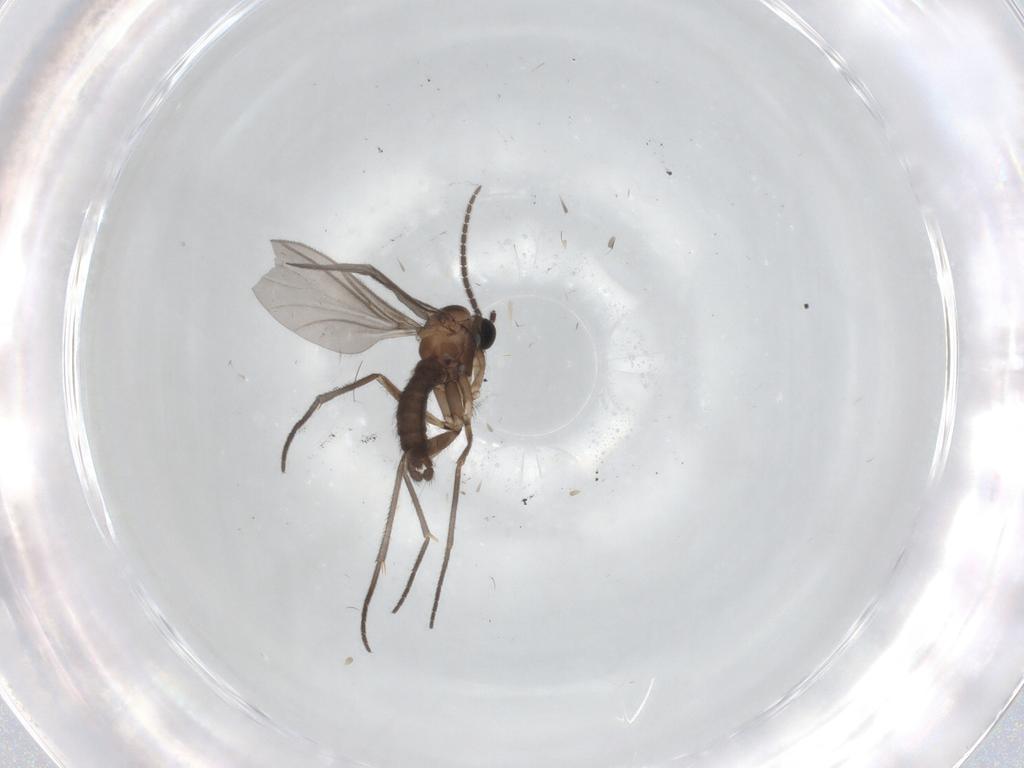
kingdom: Animalia
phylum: Arthropoda
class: Insecta
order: Diptera
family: Sciaridae
